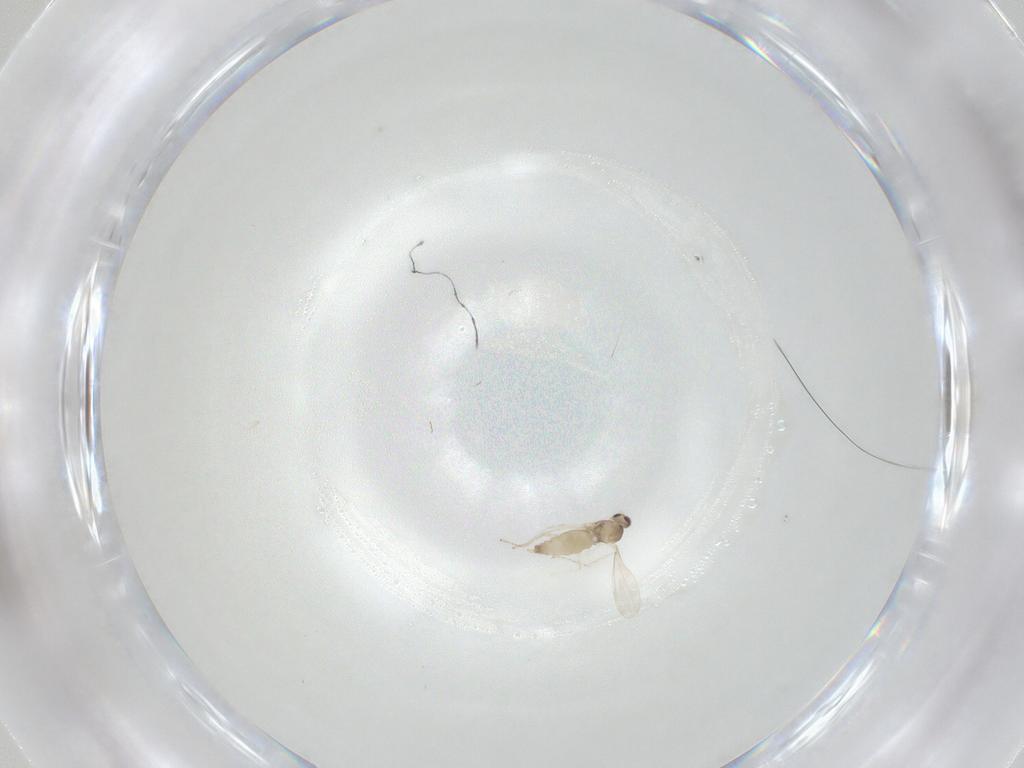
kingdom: Animalia
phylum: Arthropoda
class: Insecta
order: Diptera
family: Cecidomyiidae
